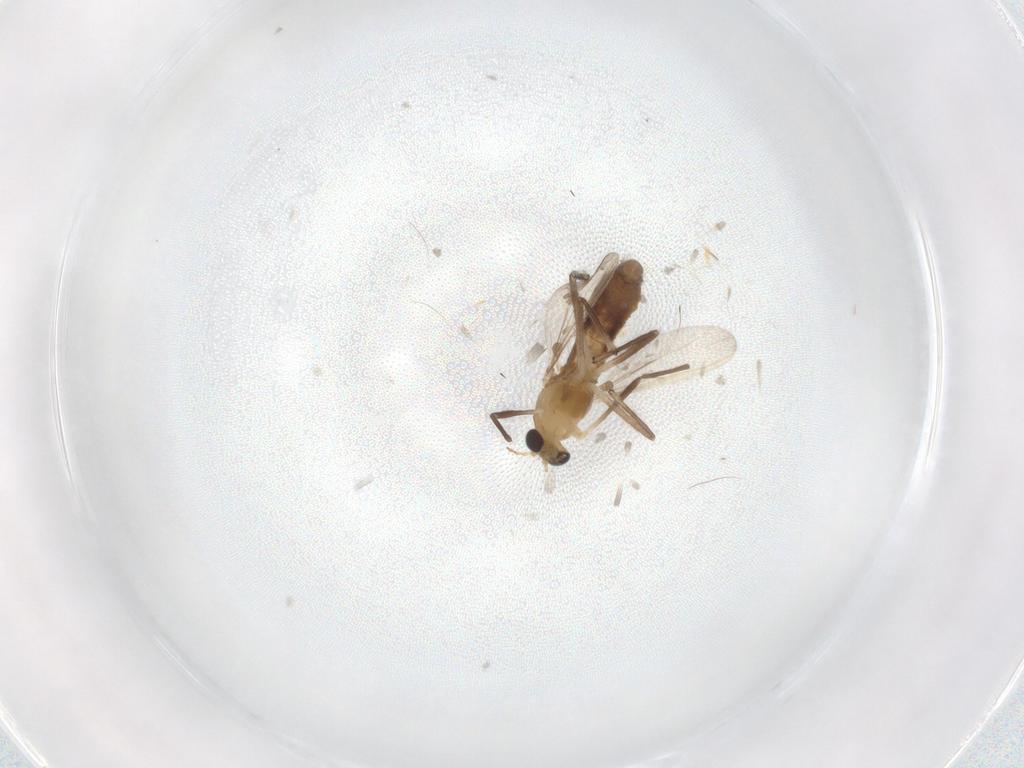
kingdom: Animalia
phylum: Arthropoda
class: Insecta
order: Diptera
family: Chironomidae
